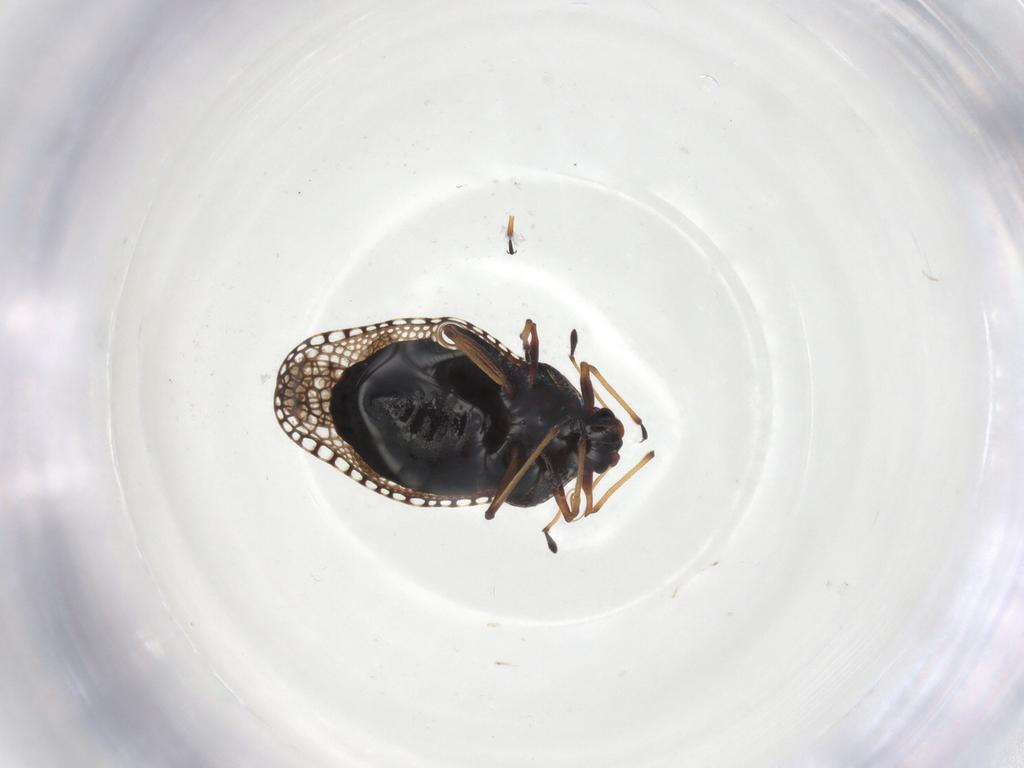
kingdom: Animalia
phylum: Arthropoda
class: Insecta
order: Hemiptera
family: Tingidae
